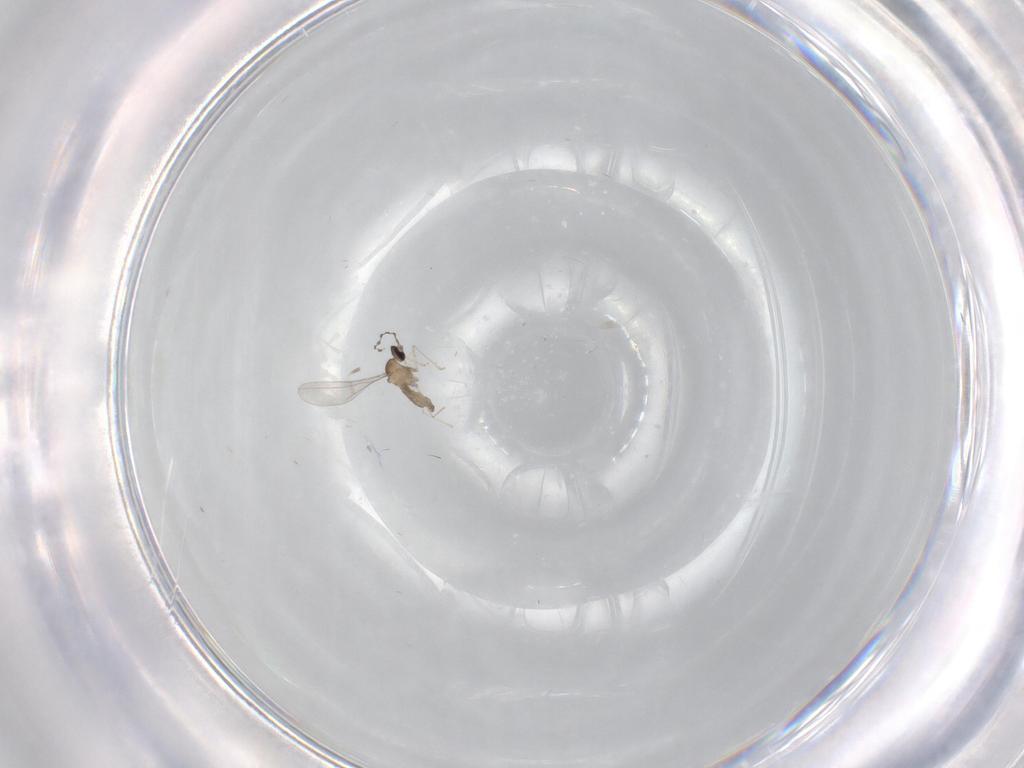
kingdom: Animalia
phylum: Arthropoda
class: Insecta
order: Diptera
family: Cecidomyiidae
